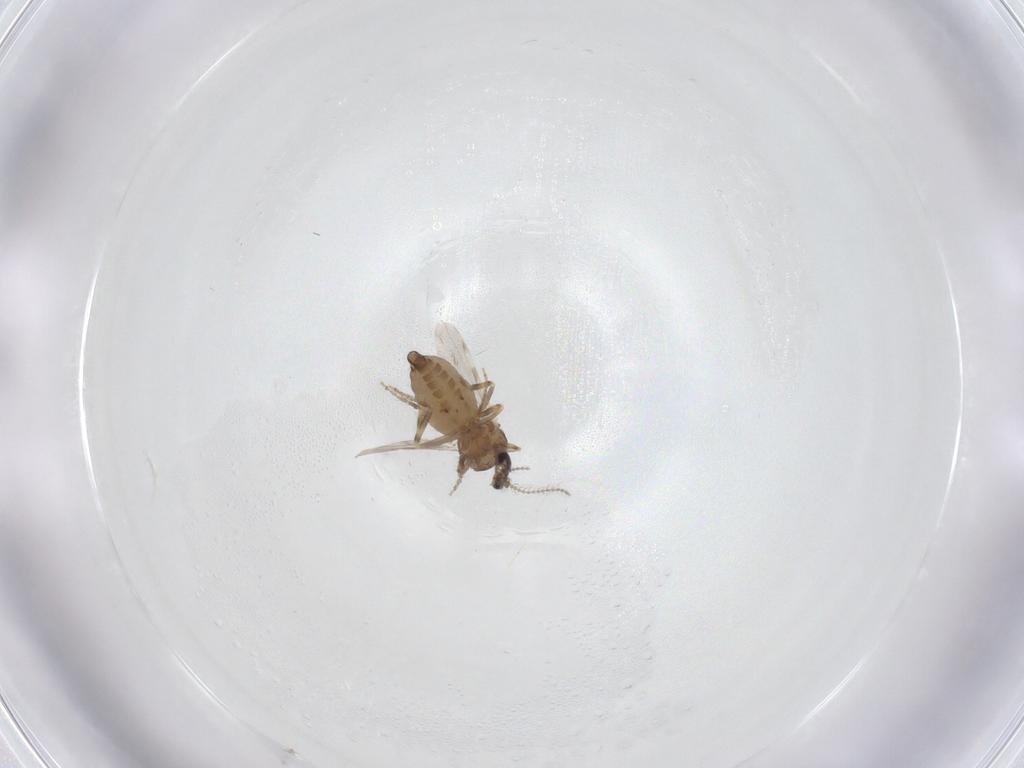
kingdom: Animalia
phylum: Arthropoda
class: Insecta
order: Diptera
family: Ceratopogonidae
